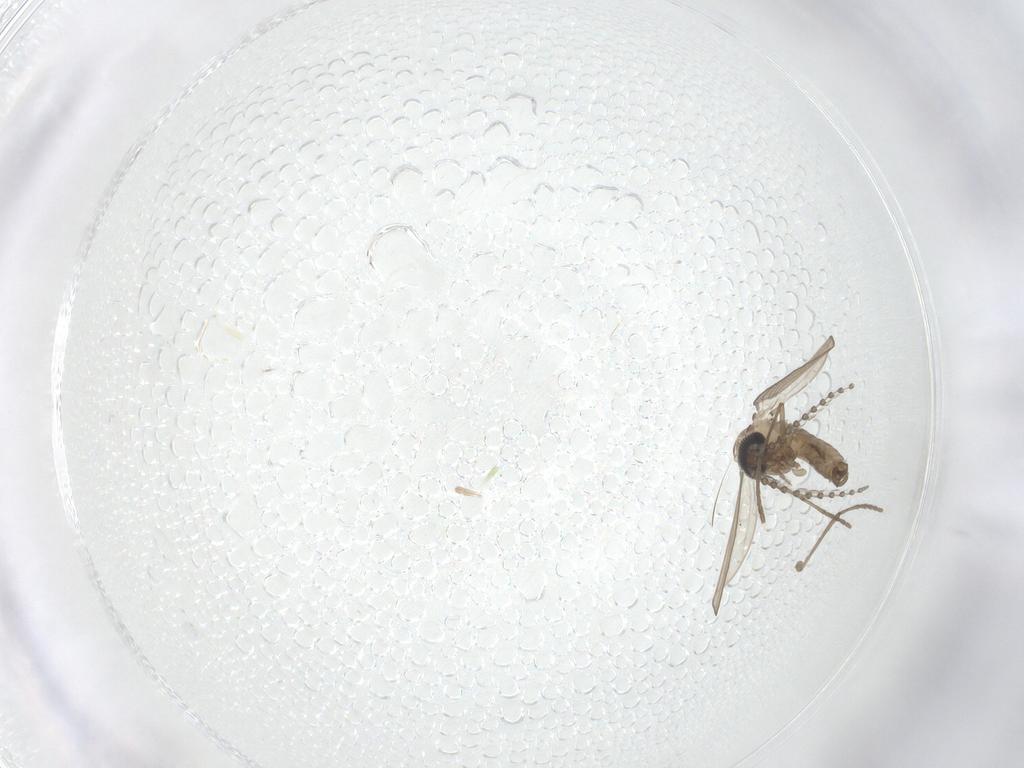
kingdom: Animalia
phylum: Arthropoda
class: Insecta
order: Diptera
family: Psychodidae
